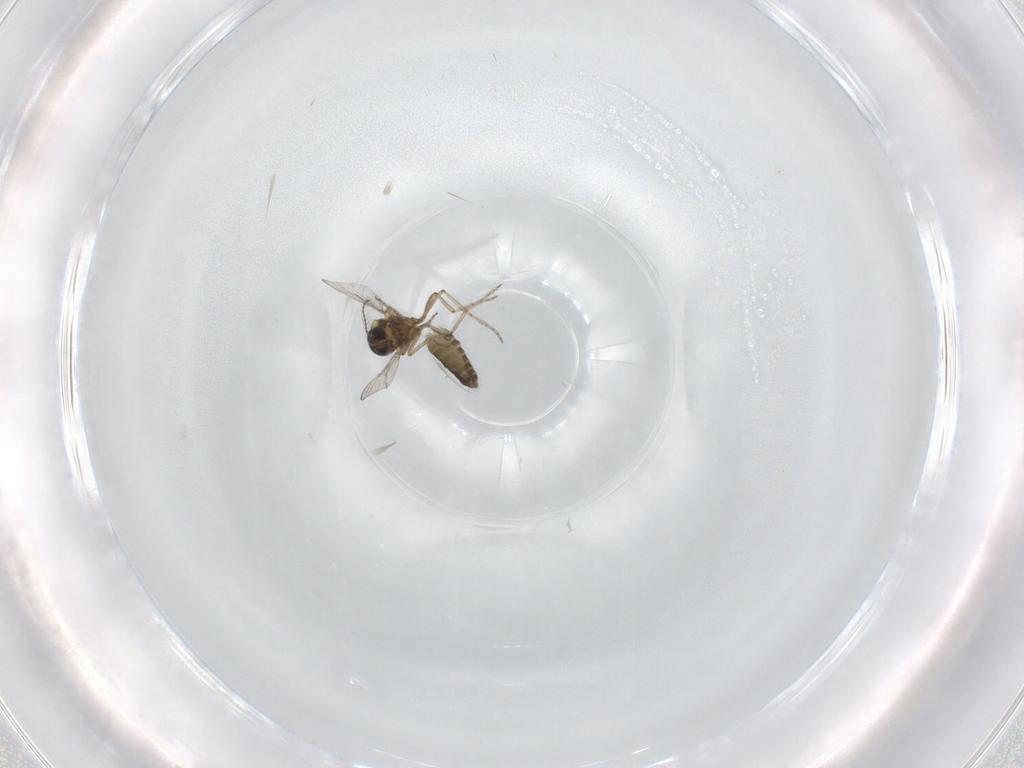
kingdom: Animalia
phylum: Arthropoda
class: Insecta
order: Diptera
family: Ceratopogonidae
